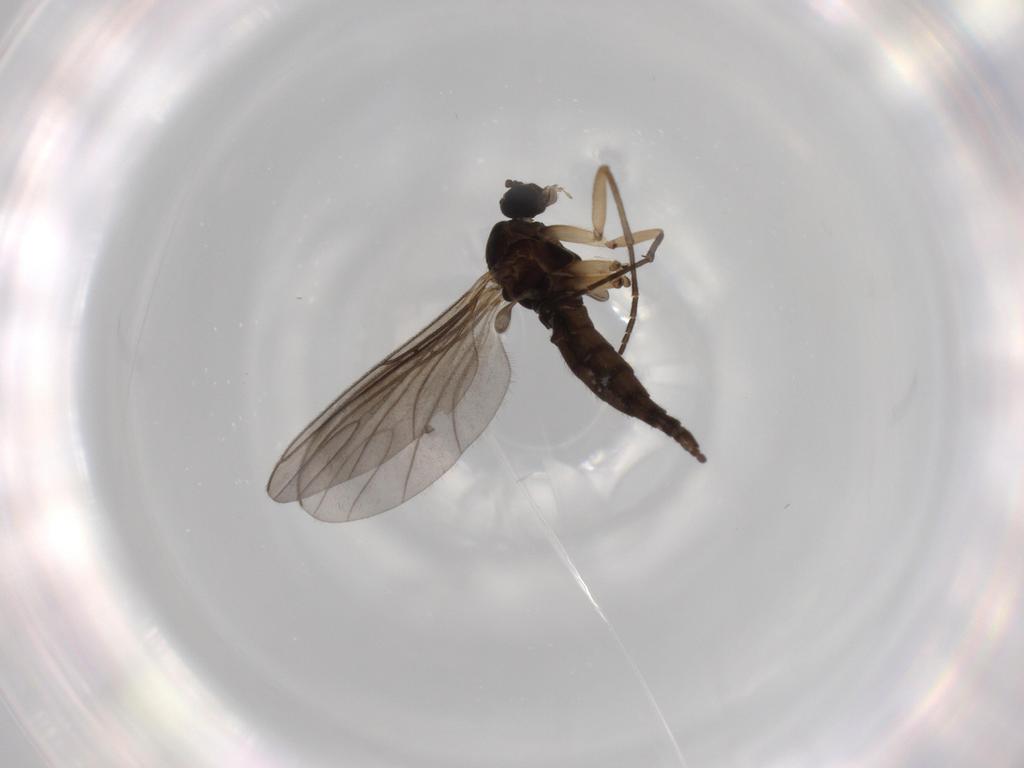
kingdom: Animalia
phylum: Arthropoda
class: Insecta
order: Diptera
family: Sciaridae
